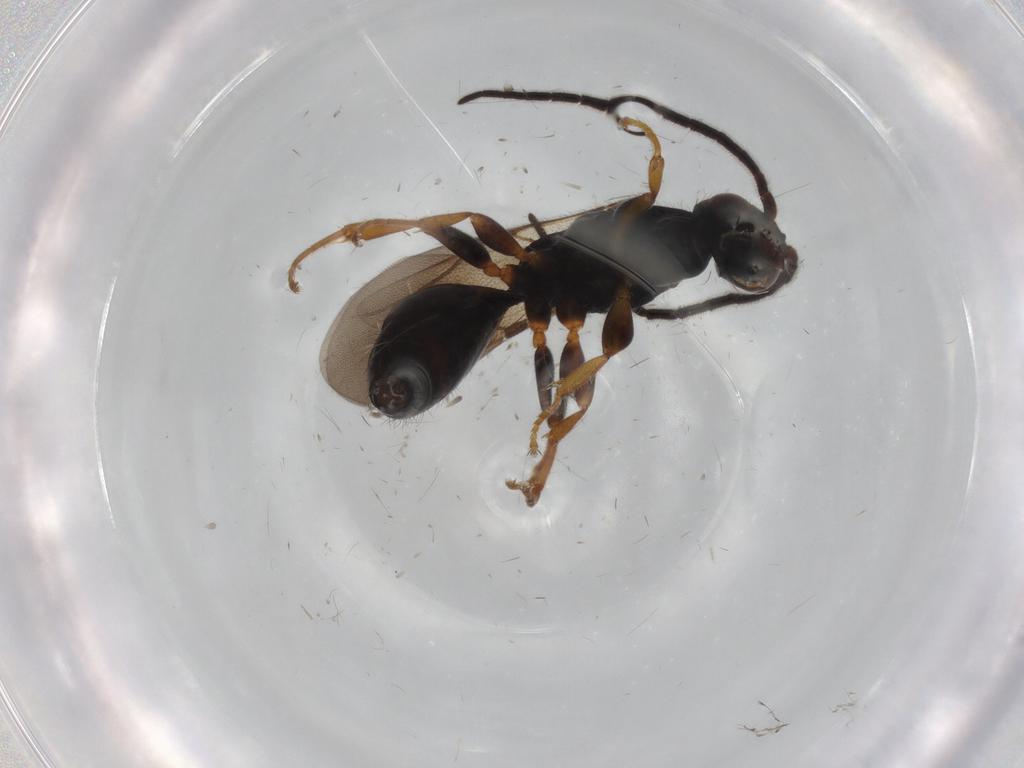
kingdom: Animalia
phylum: Arthropoda
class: Insecta
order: Hymenoptera
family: Bethylidae
